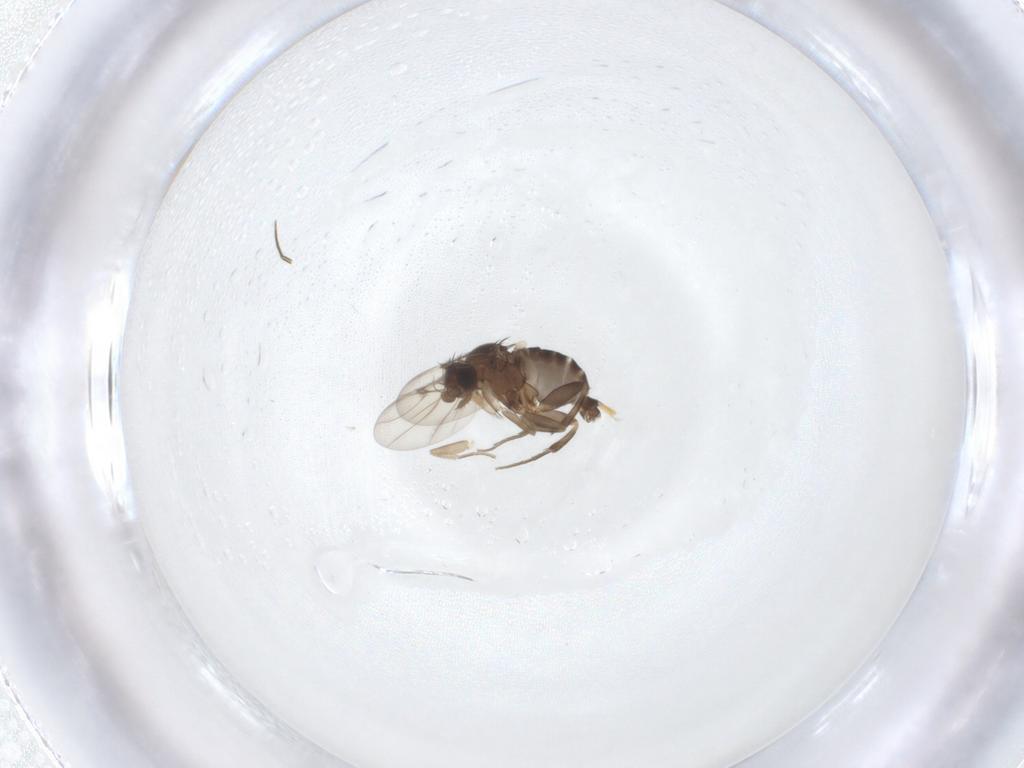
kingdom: Animalia
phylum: Arthropoda
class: Insecta
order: Diptera
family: Phoridae
